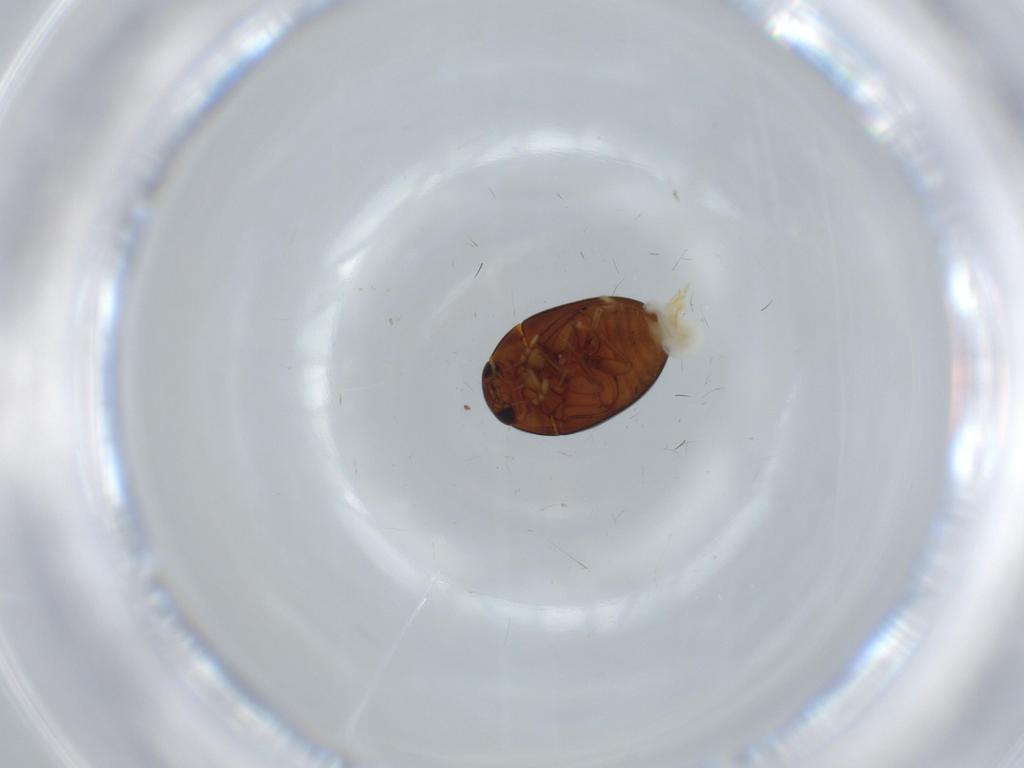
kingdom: Animalia
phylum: Arthropoda
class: Insecta
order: Coleoptera
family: Phalacridae
